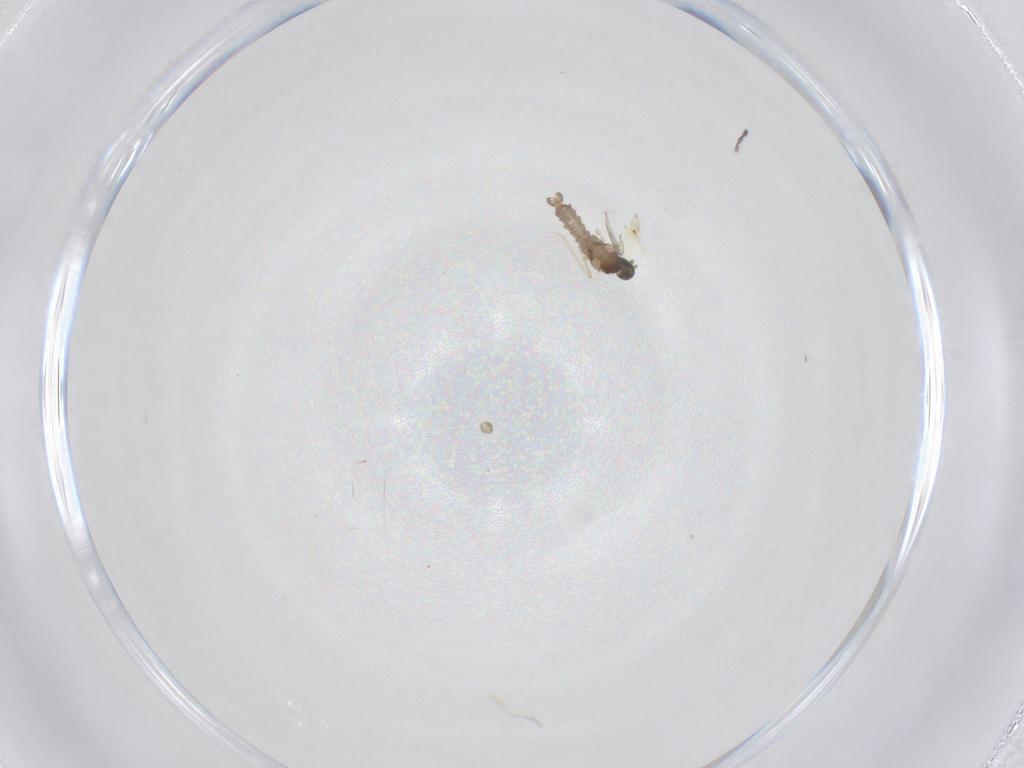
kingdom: Animalia
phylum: Arthropoda
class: Insecta
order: Diptera
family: Cecidomyiidae
